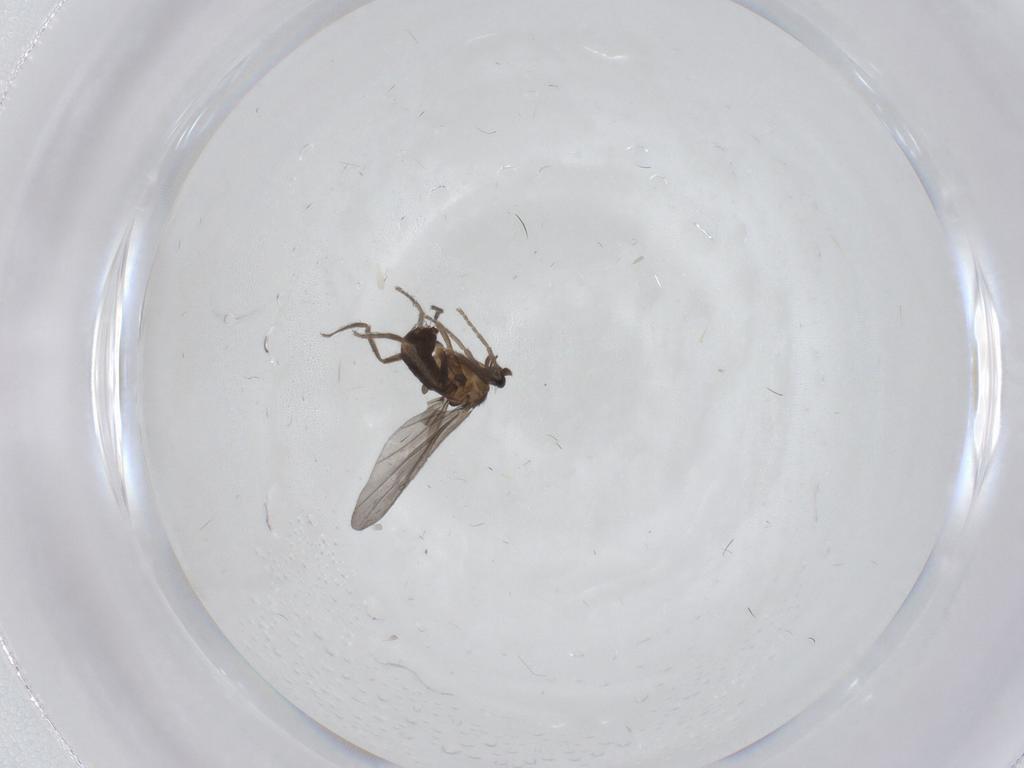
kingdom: Animalia
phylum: Arthropoda
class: Insecta
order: Diptera
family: Phoridae
